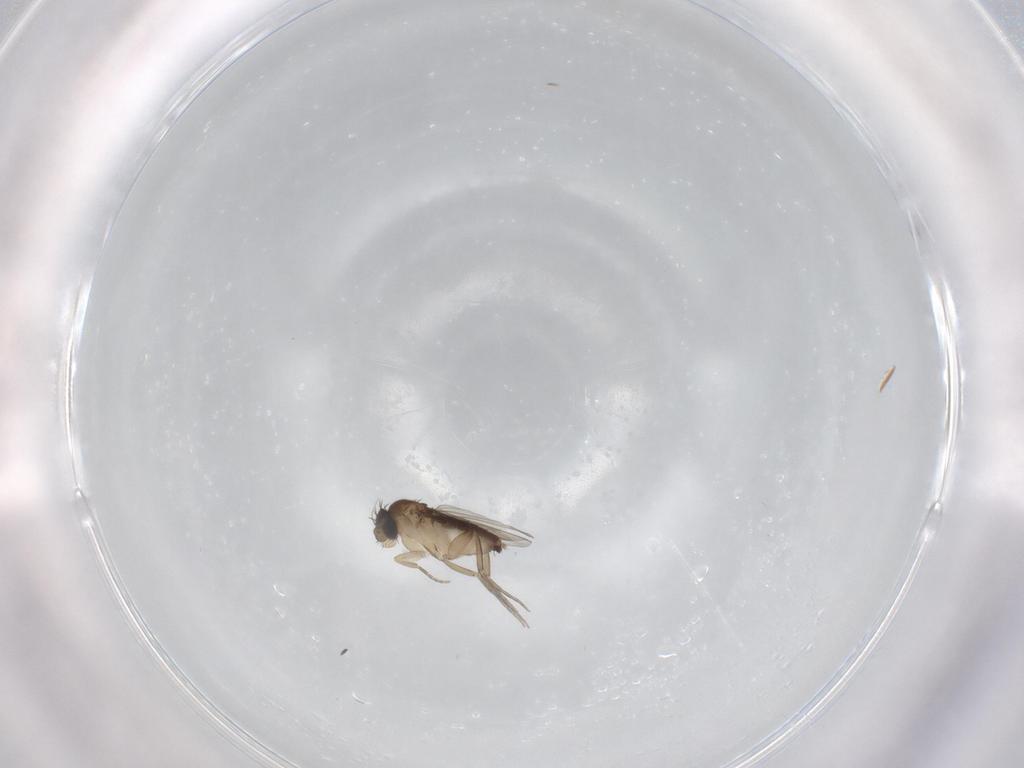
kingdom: Animalia
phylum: Arthropoda
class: Insecta
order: Diptera
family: Phoridae
